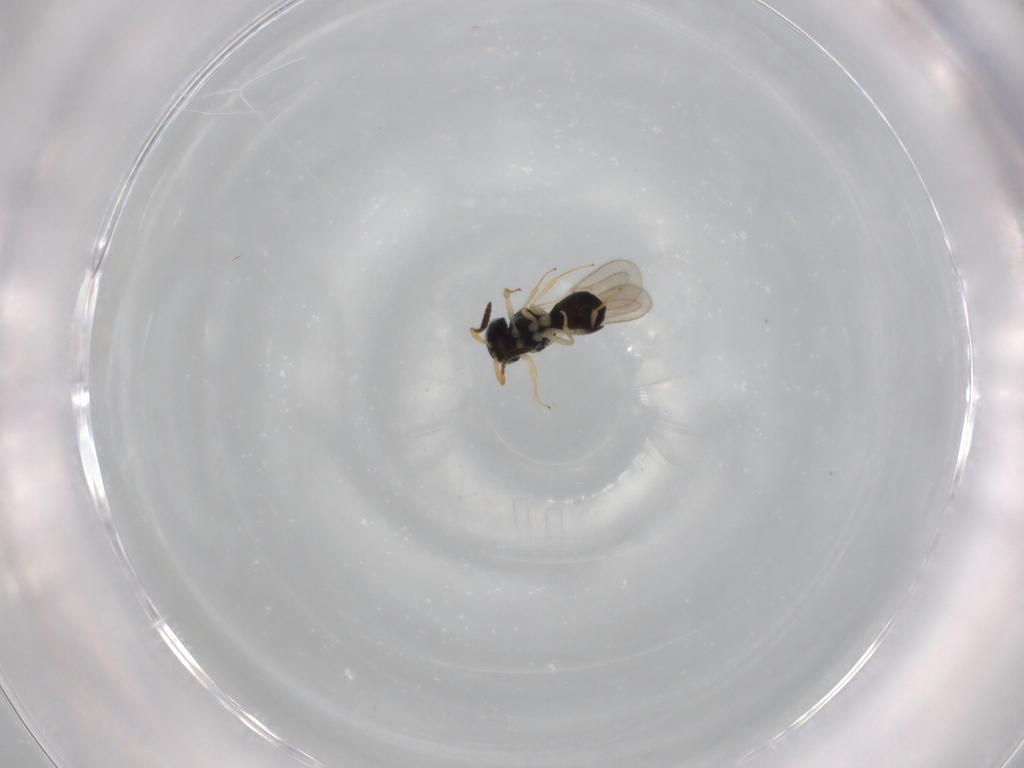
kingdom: Animalia
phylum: Arthropoda
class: Insecta
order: Hymenoptera
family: Scelionidae
